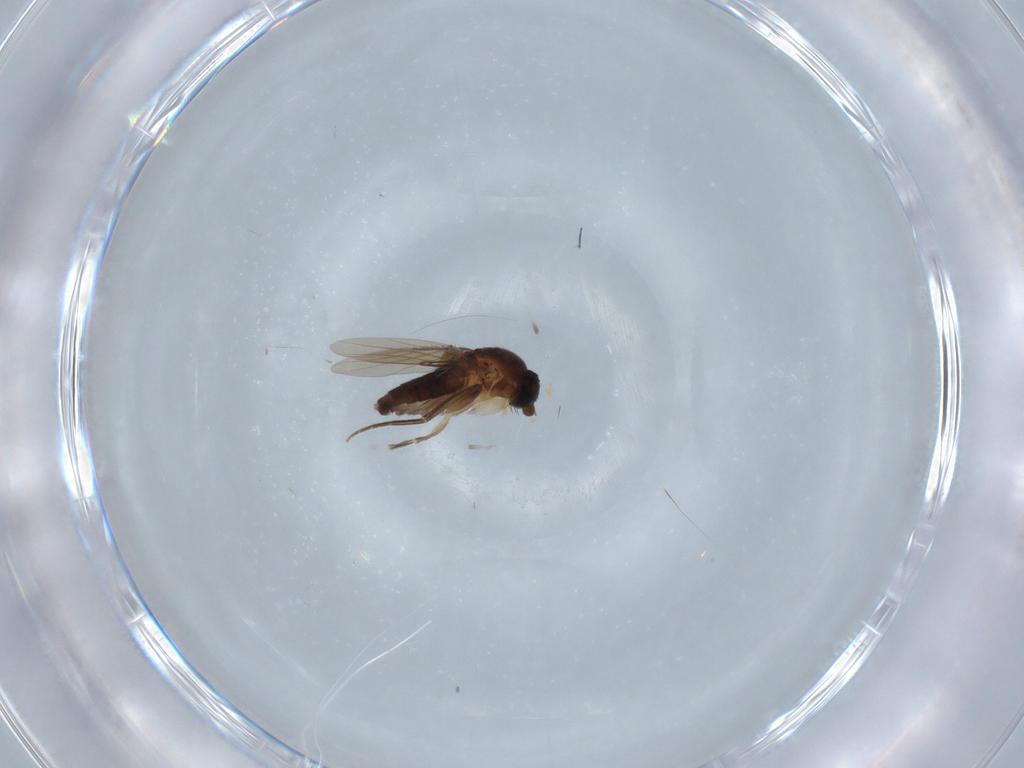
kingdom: Animalia
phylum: Arthropoda
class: Insecta
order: Diptera
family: Phoridae
